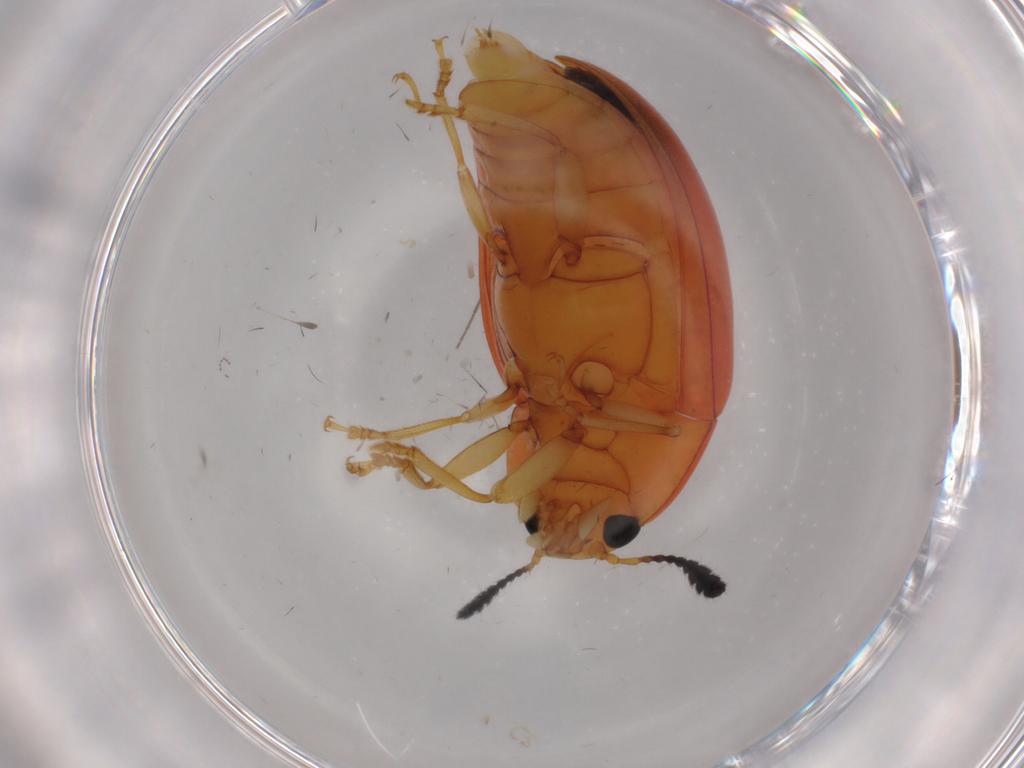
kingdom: Animalia
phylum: Arthropoda
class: Insecta
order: Coleoptera
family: Erotylidae
